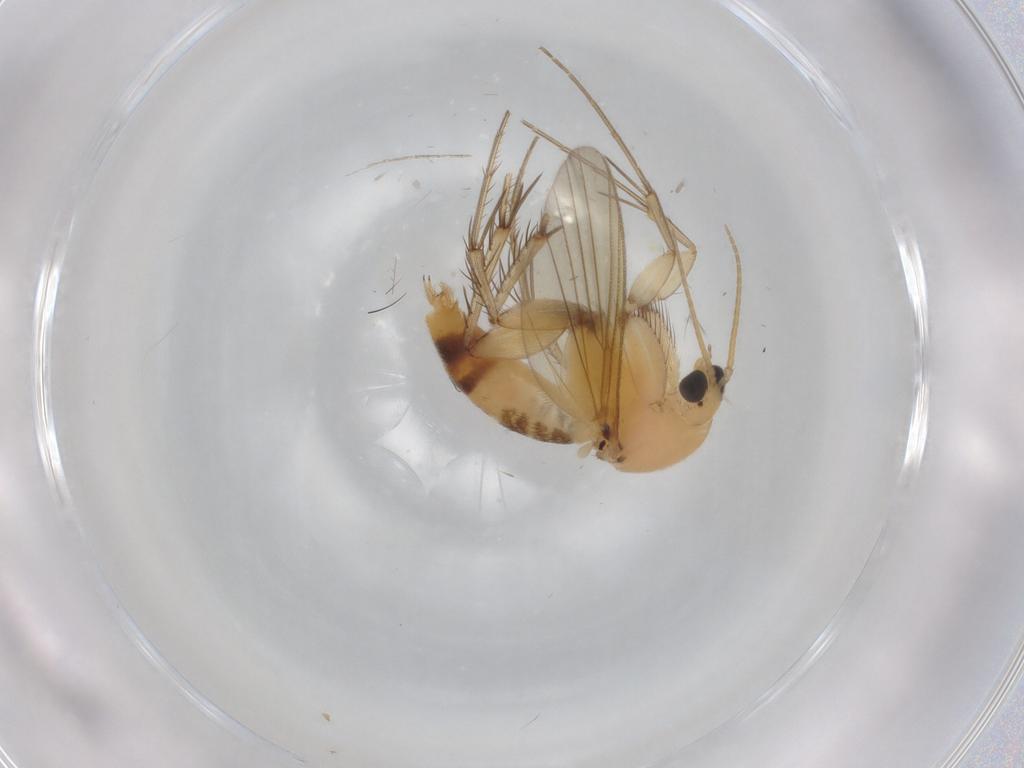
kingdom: Animalia
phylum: Arthropoda
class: Insecta
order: Diptera
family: Mycetophilidae
